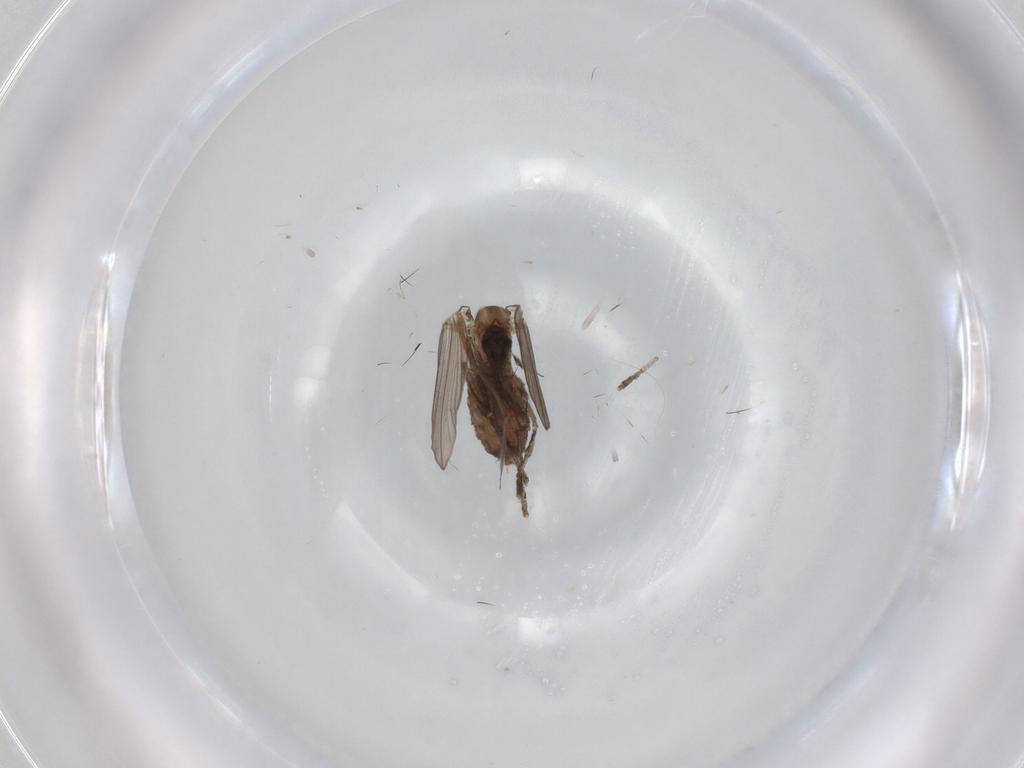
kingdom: Animalia
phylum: Arthropoda
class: Insecta
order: Diptera
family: Psychodidae
